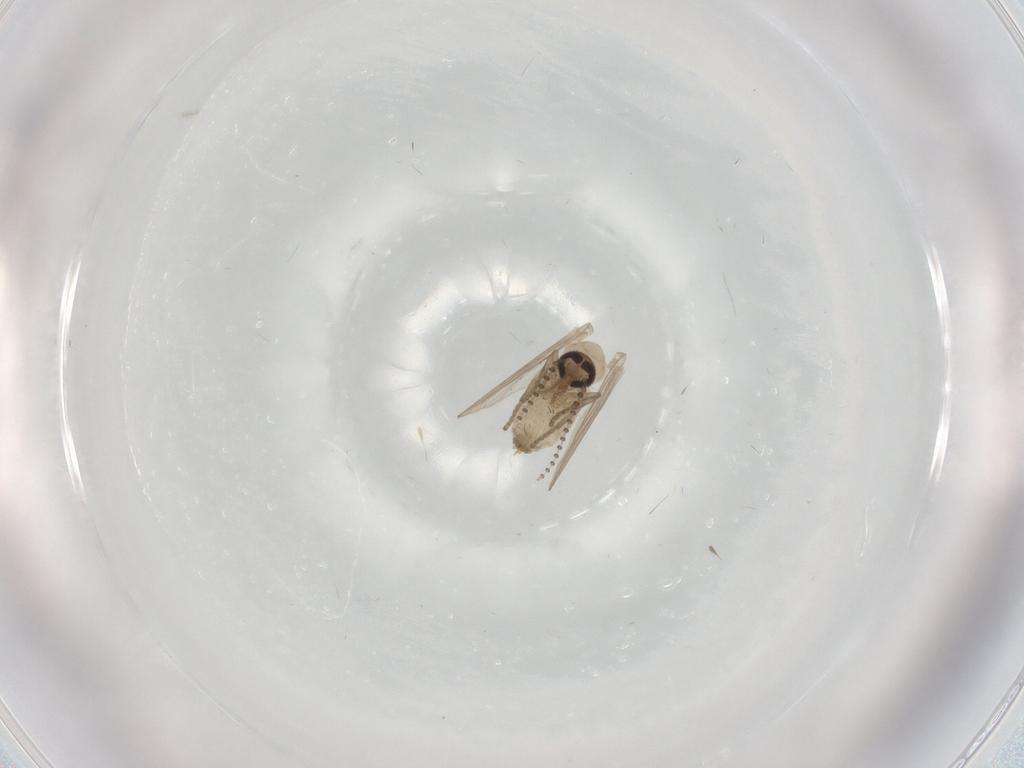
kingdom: Animalia
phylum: Arthropoda
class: Insecta
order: Diptera
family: Psychodidae
